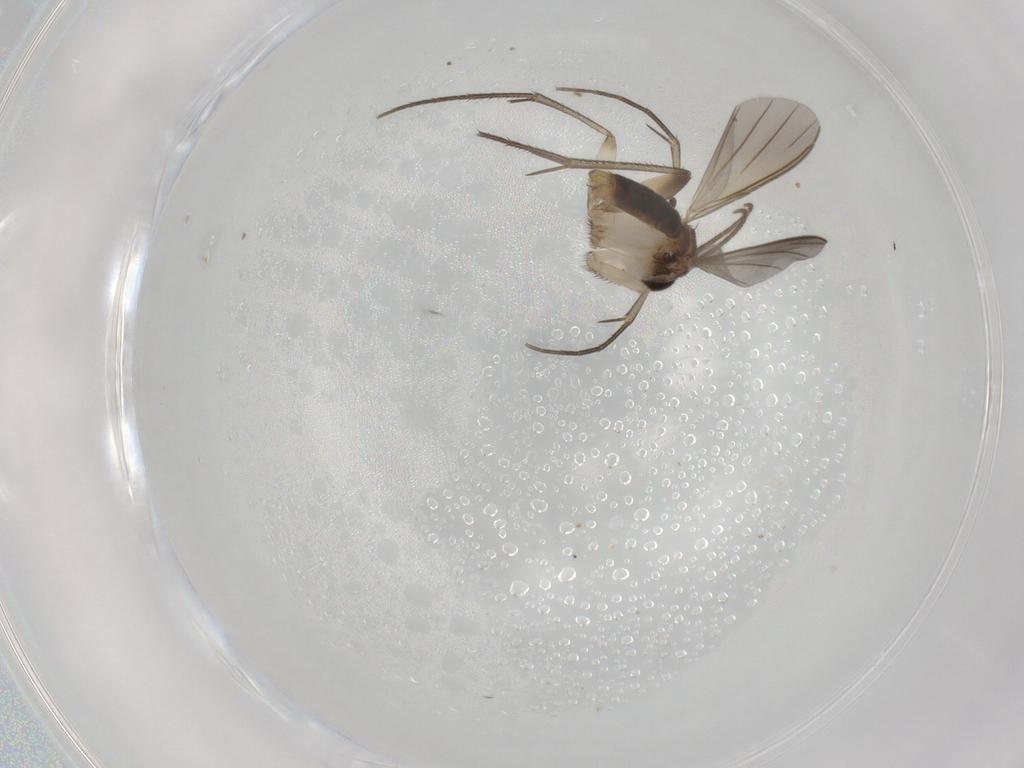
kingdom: Animalia
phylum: Arthropoda
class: Insecta
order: Diptera
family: Mycetophilidae
